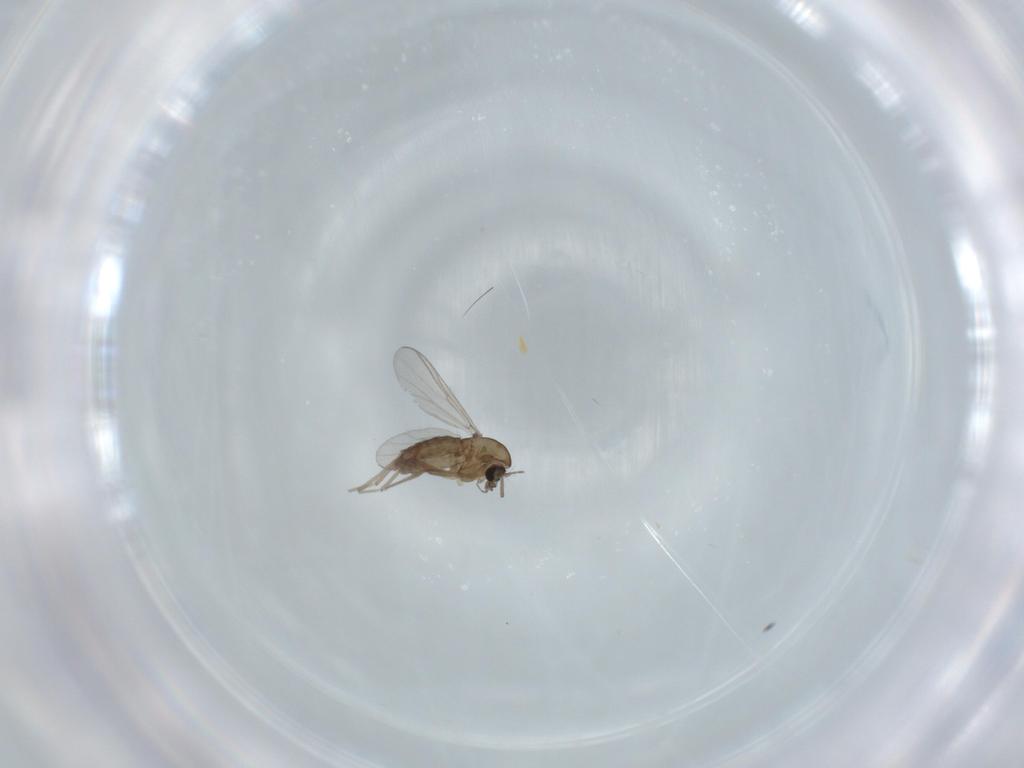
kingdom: Animalia
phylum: Arthropoda
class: Insecta
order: Diptera
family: Chironomidae
